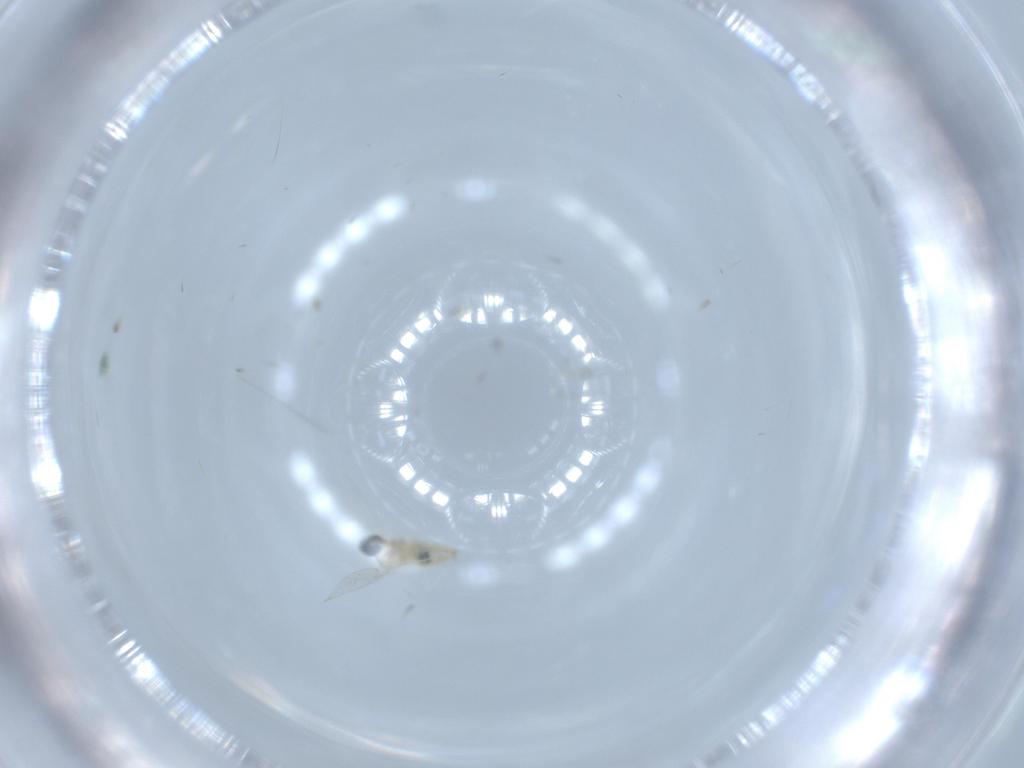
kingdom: Animalia
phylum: Arthropoda
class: Insecta
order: Diptera
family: Cecidomyiidae
